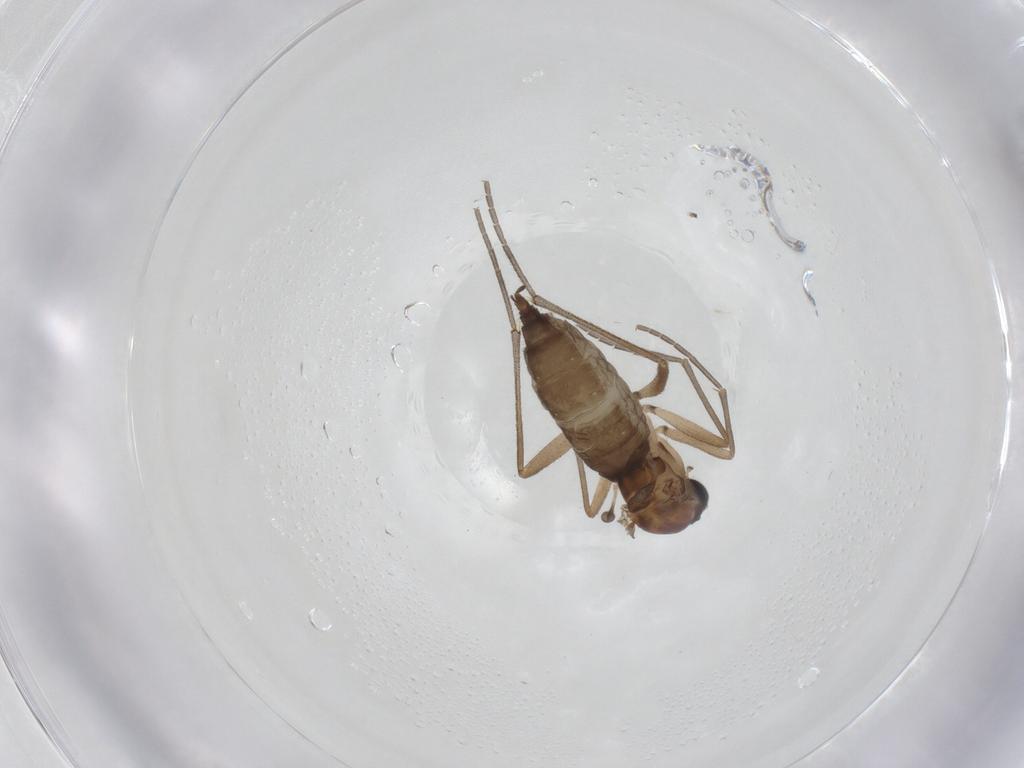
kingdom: Animalia
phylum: Arthropoda
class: Insecta
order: Diptera
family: Sciaridae
